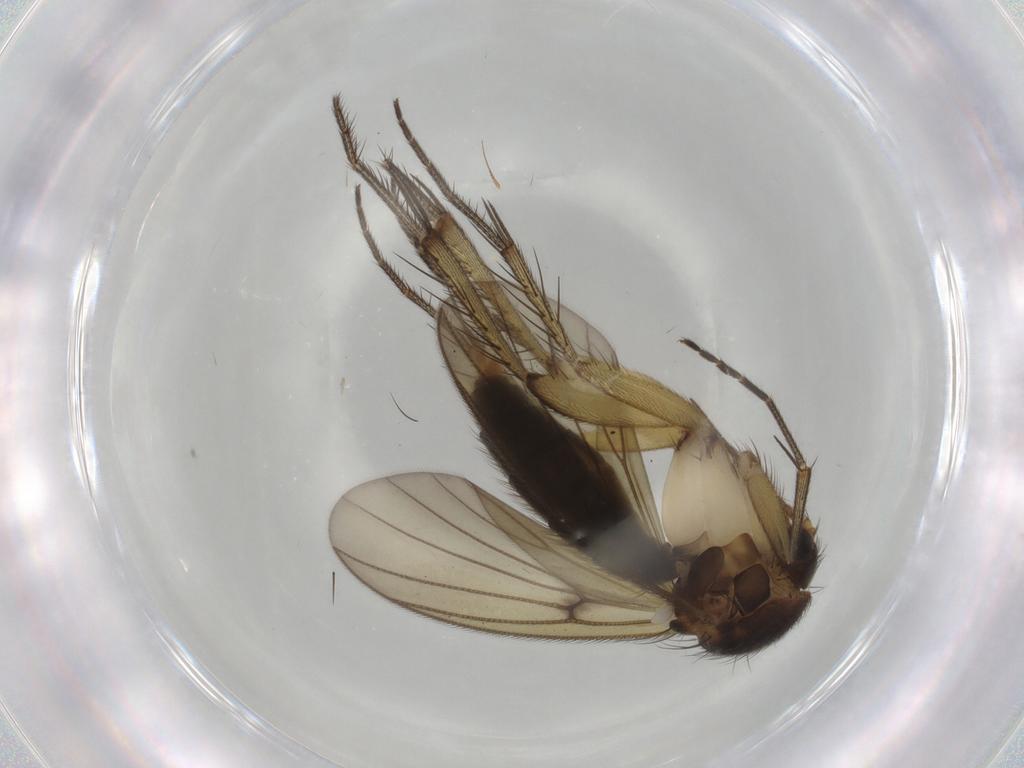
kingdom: Animalia
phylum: Arthropoda
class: Insecta
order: Diptera
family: Mycetophilidae
